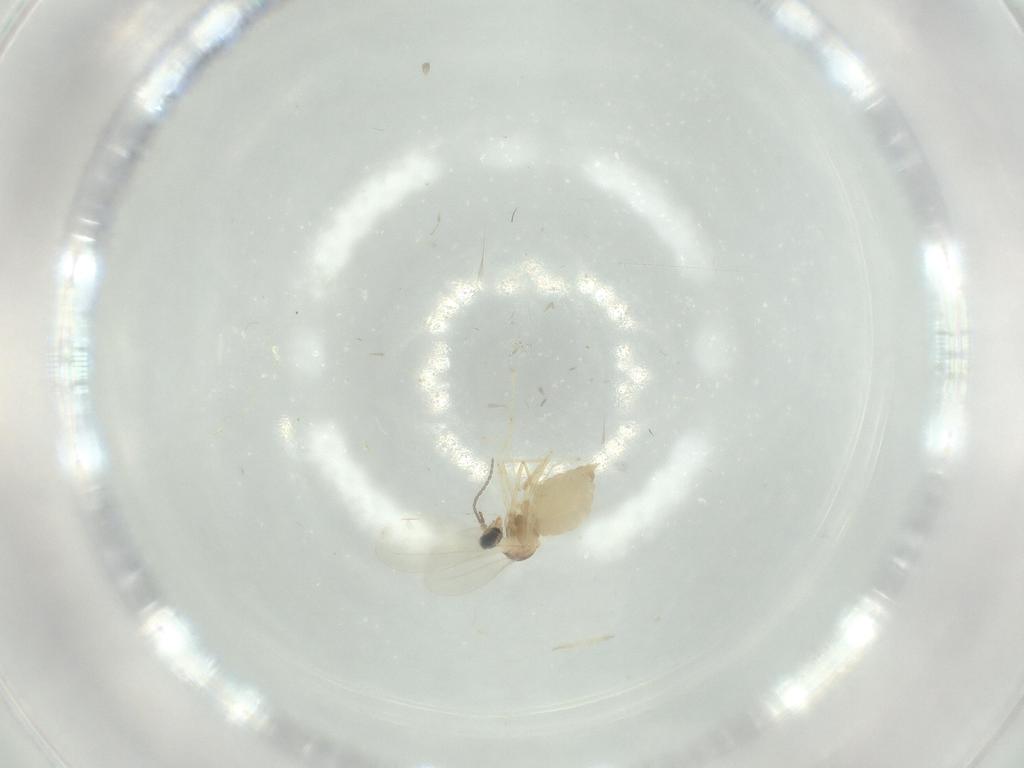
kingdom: Animalia
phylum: Arthropoda
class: Insecta
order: Diptera
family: Cecidomyiidae
